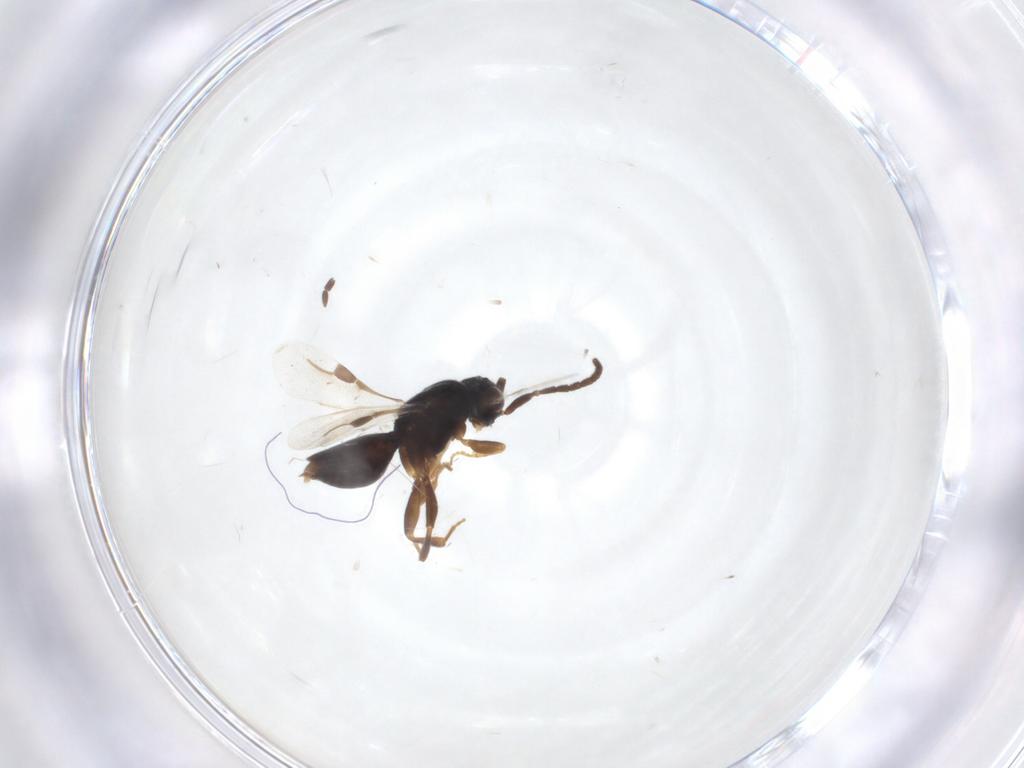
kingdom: Animalia
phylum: Arthropoda
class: Insecta
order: Hymenoptera
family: Megaspilidae
